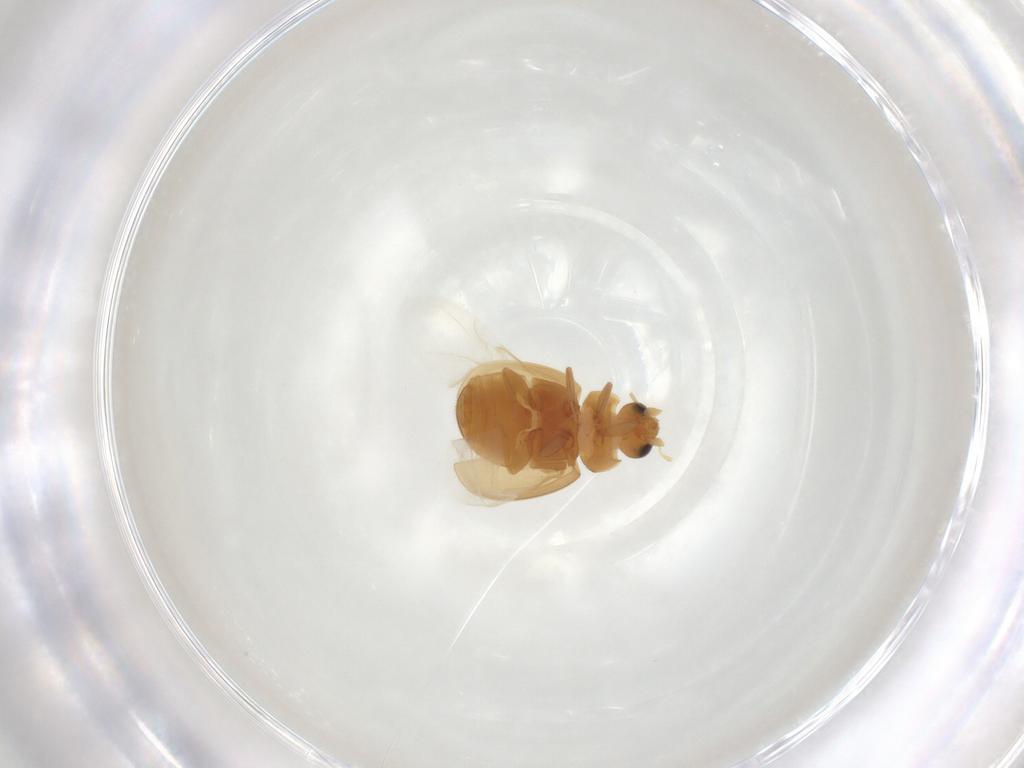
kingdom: Animalia
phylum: Arthropoda
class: Insecta
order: Coleoptera
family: Coccinellidae
